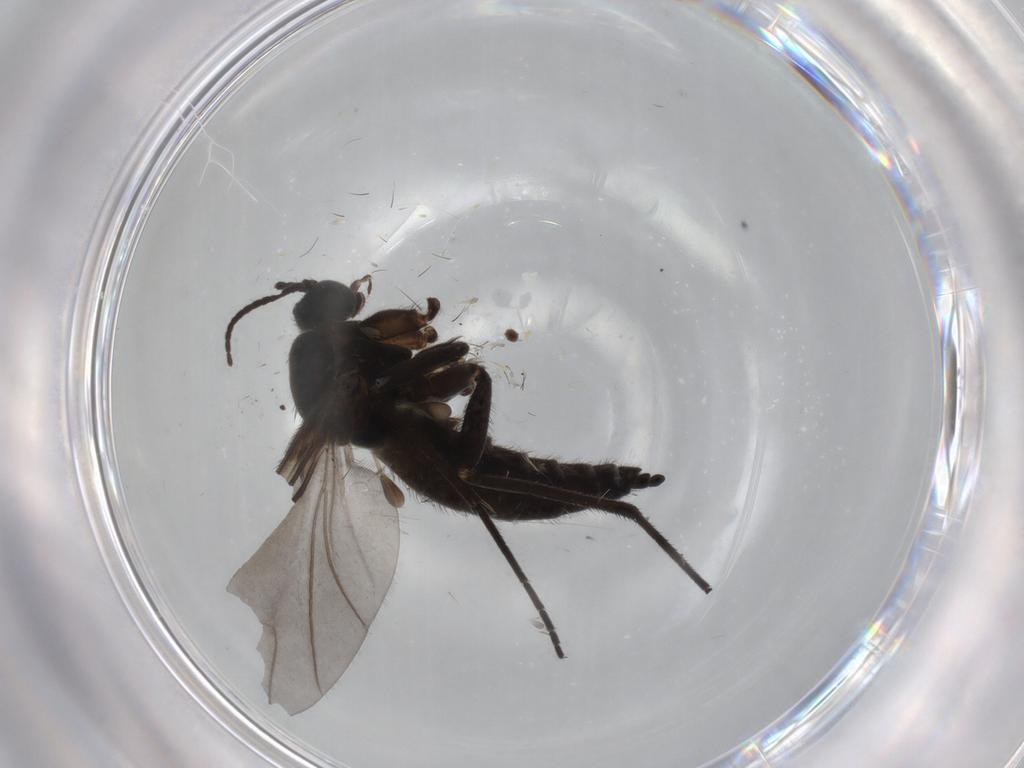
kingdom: Animalia
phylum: Arthropoda
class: Insecta
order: Diptera
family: Sciaridae
